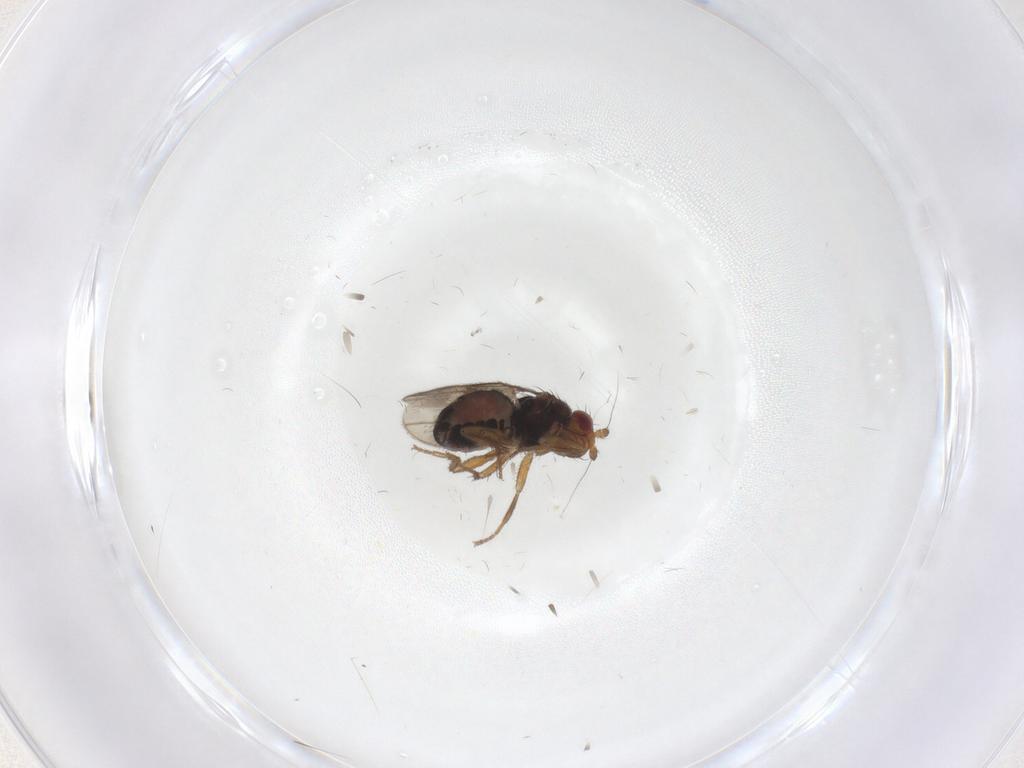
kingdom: Animalia
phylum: Arthropoda
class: Insecta
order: Diptera
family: Sphaeroceridae
